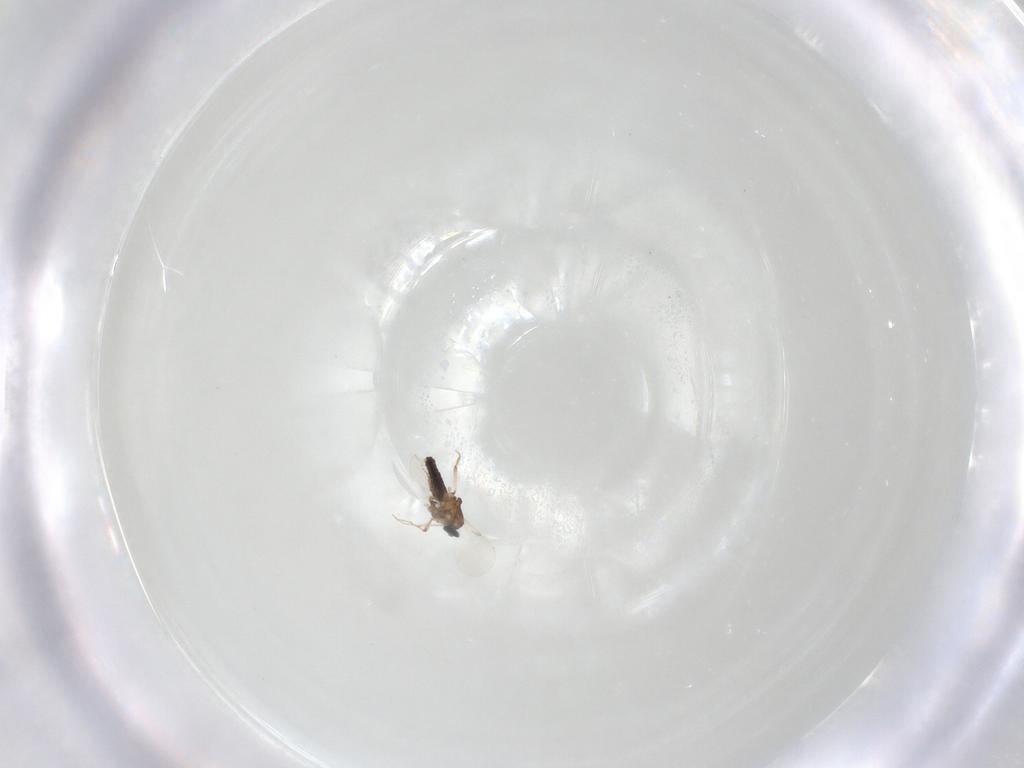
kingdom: Animalia
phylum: Arthropoda
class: Insecta
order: Diptera
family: Ceratopogonidae
